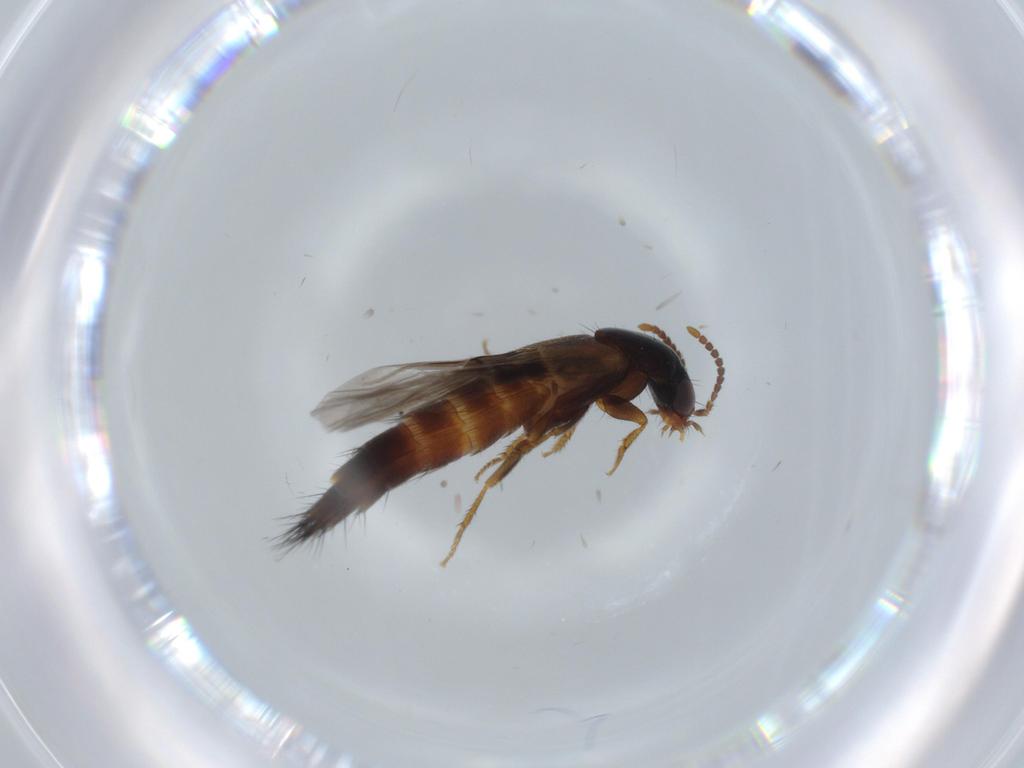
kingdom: Animalia
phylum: Arthropoda
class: Insecta
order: Coleoptera
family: Staphylinidae
